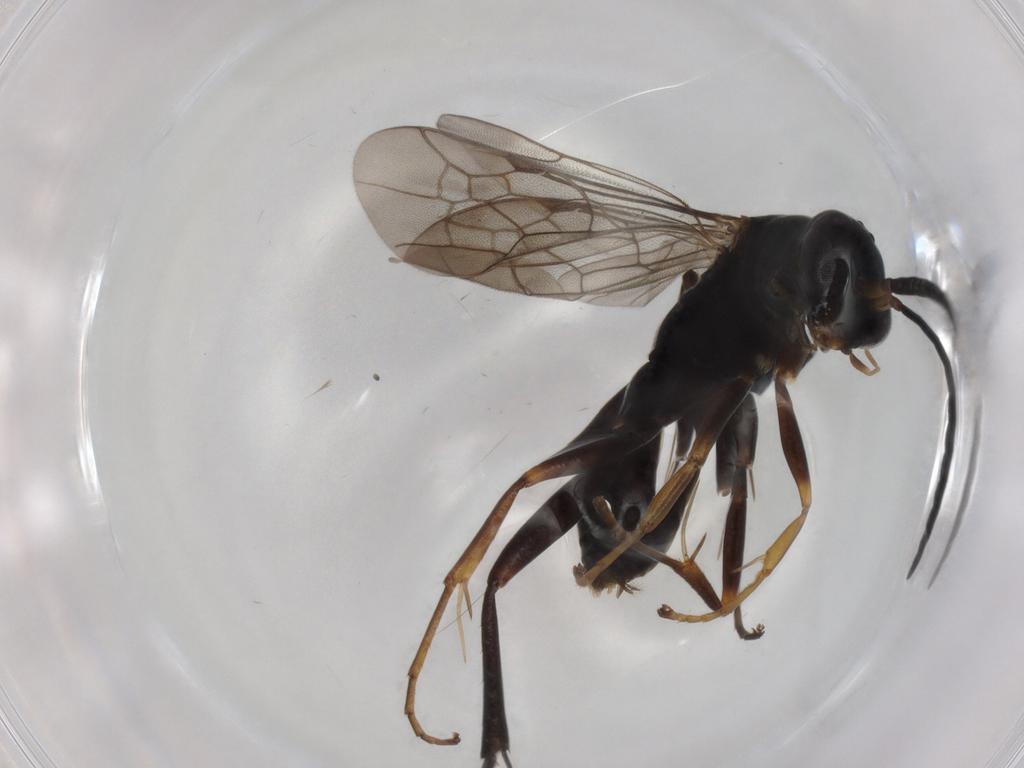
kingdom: Animalia
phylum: Arthropoda
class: Insecta
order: Hymenoptera
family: Pompilidae
